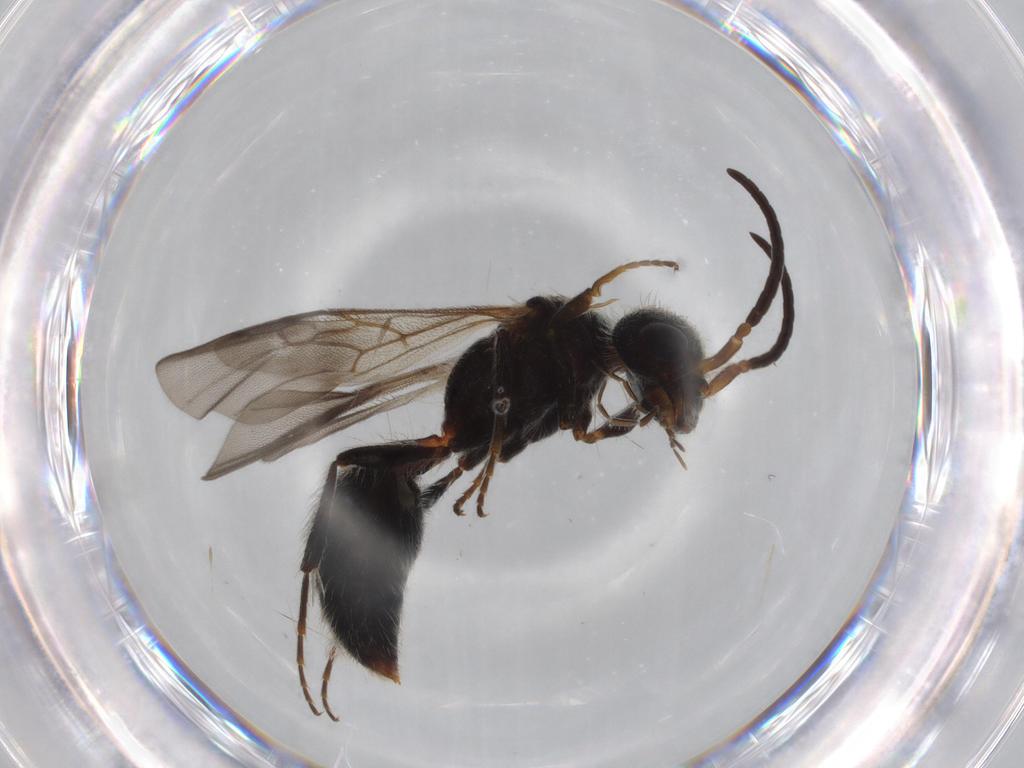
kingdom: Animalia
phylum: Arthropoda
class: Insecta
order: Hymenoptera
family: Mutillidae
